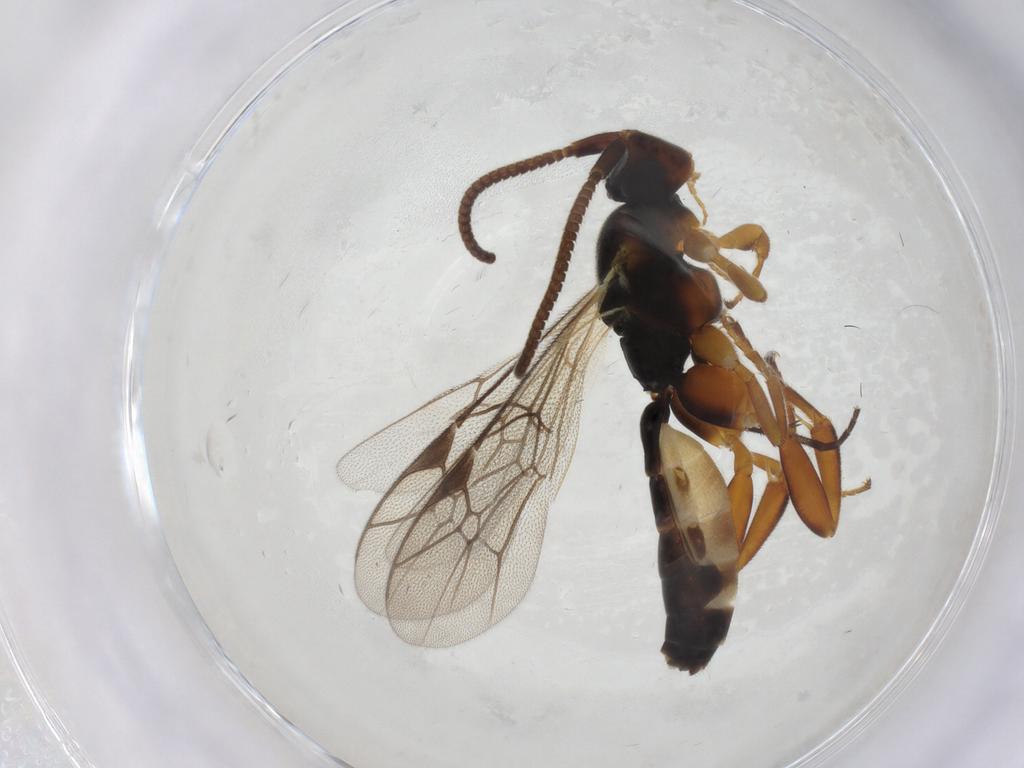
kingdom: Animalia
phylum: Arthropoda
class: Insecta
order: Hymenoptera
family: Ichneumonidae
